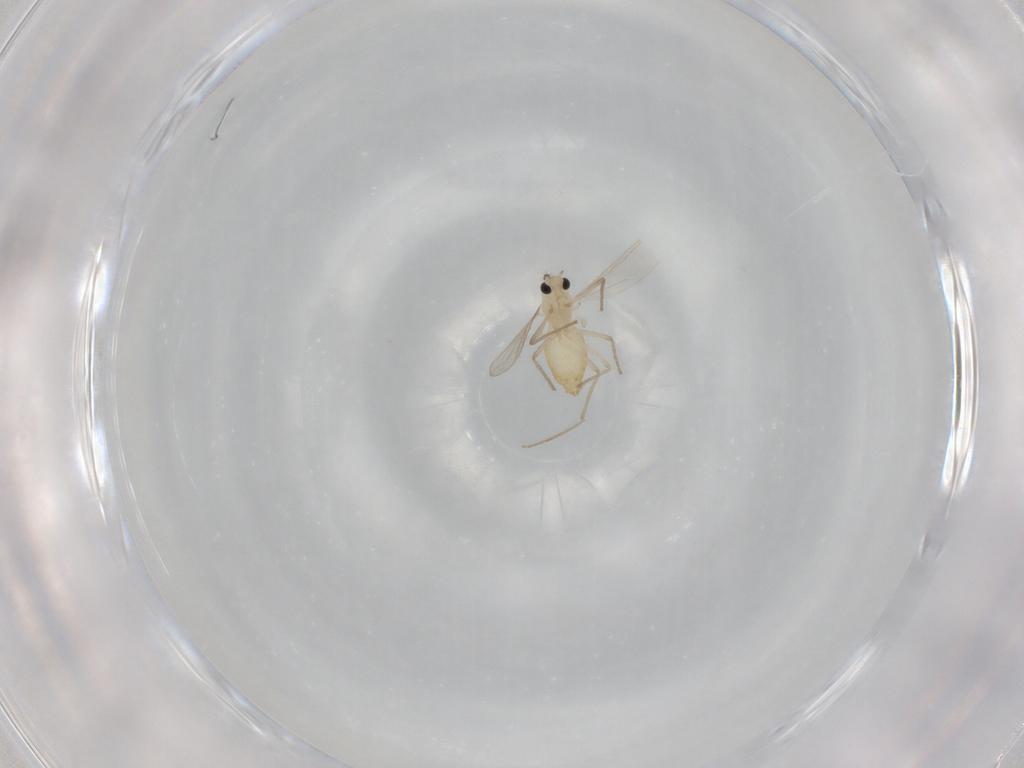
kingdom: Animalia
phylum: Arthropoda
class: Insecta
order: Diptera
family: Chironomidae
